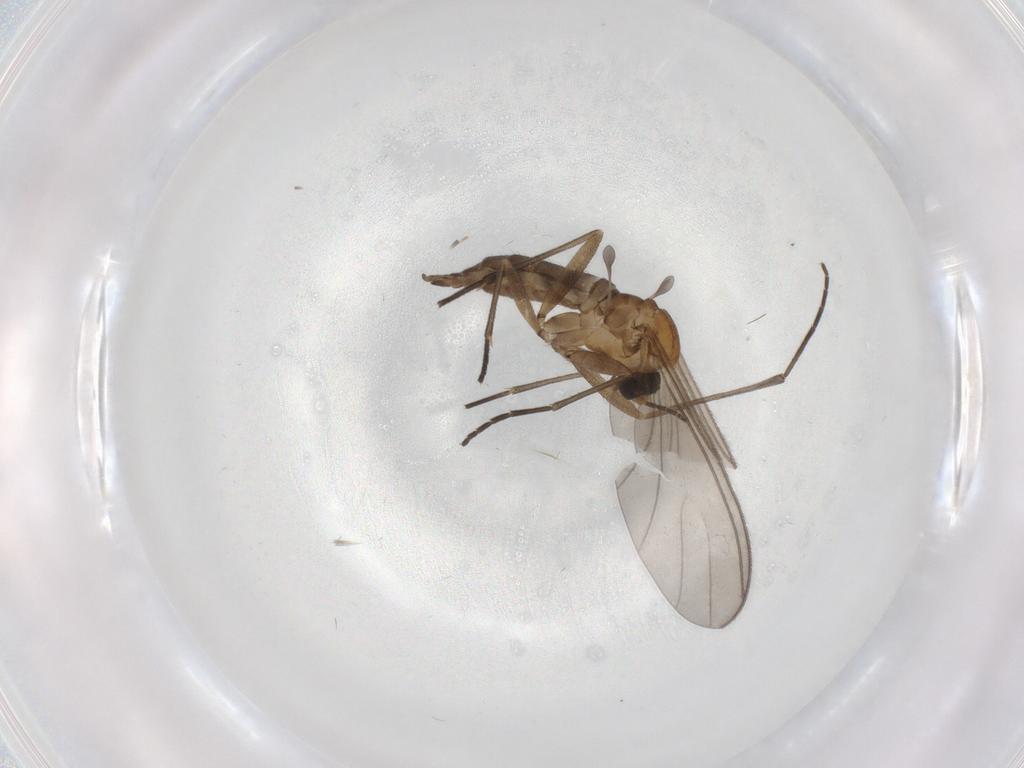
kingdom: Animalia
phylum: Arthropoda
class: Insecta
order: Diptera
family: Sciaridae
